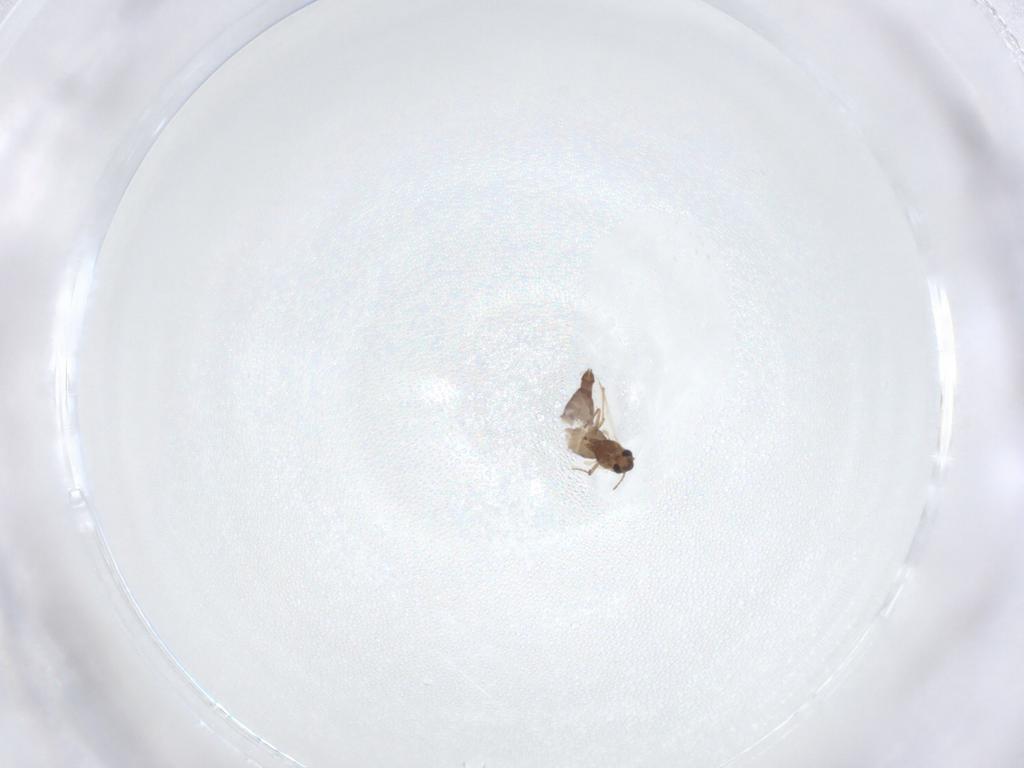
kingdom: Animalia
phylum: Arthropoda
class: Insecta
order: Diptera
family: Chironomidae
